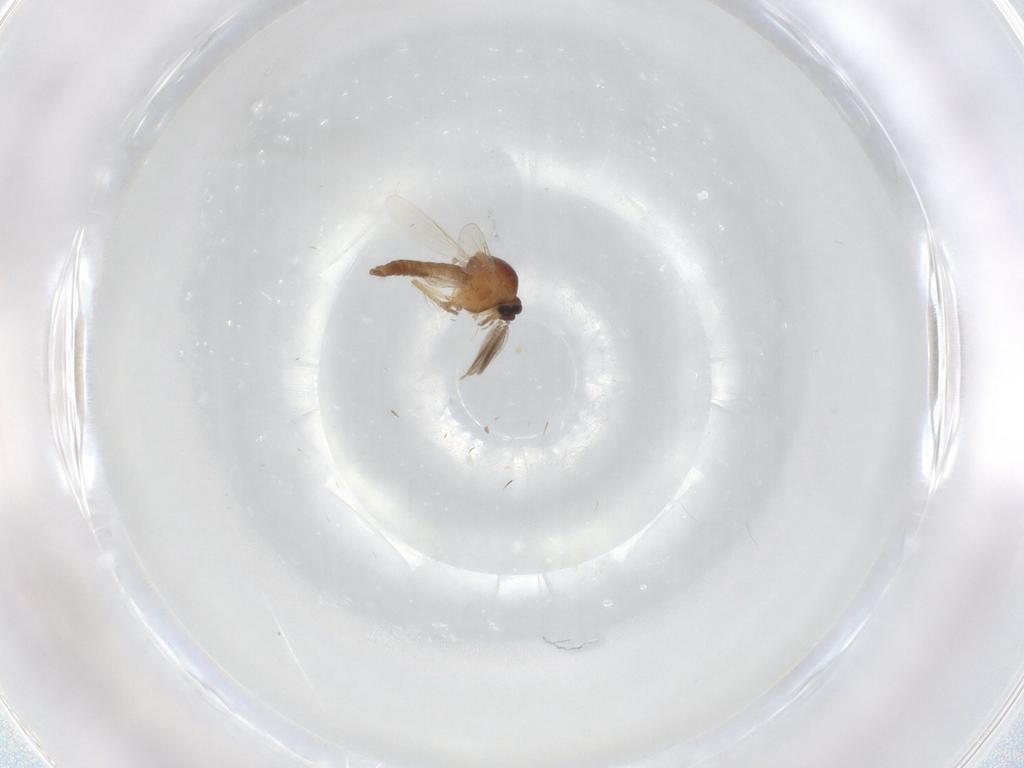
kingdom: Animalia
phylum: Arthropoda
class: Insecta
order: Diptera
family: Ceratopogonidae
